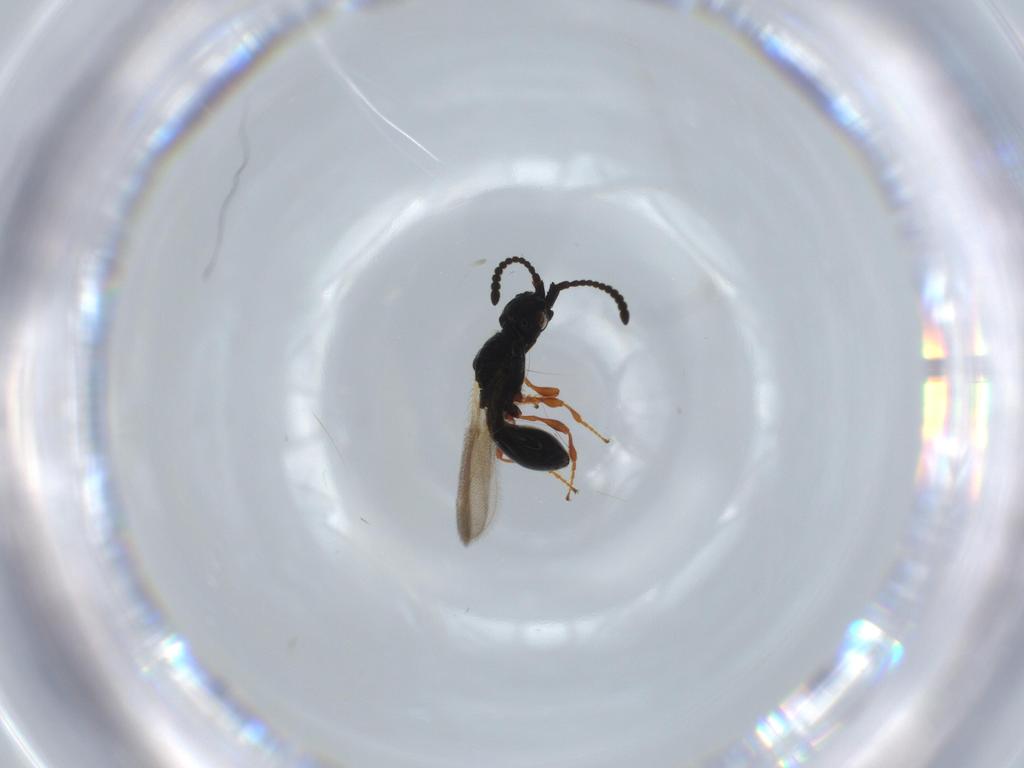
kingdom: Animalia
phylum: Arthropoda
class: Insecta
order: Hymenoptera
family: Diapriidae
